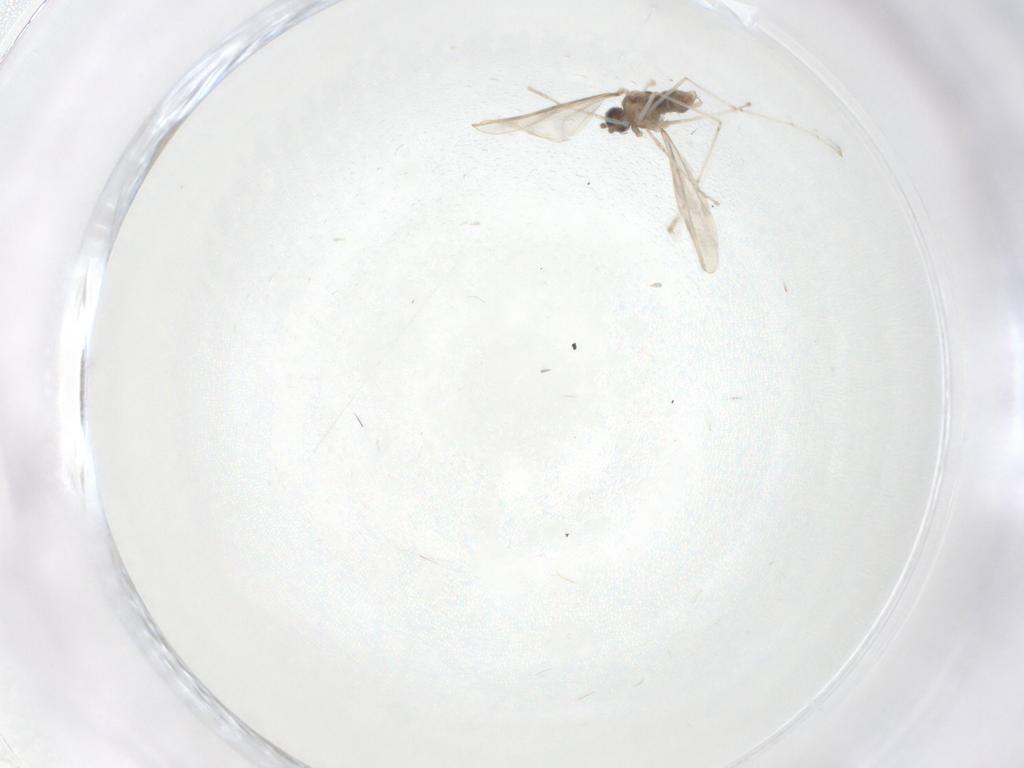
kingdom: Animalia
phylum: Arthropoda
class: Insecta
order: Diptera
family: Cecidomyiidae
